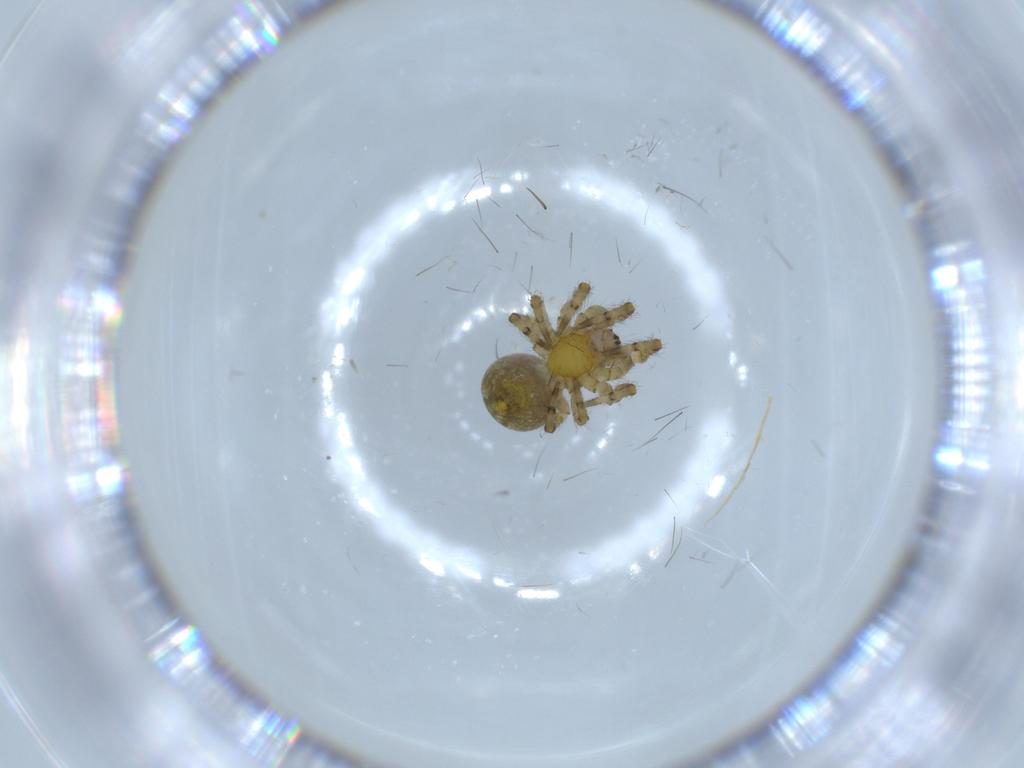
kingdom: Animalia
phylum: Arthropoda
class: Arachnida
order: Araneae
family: Araneidae
